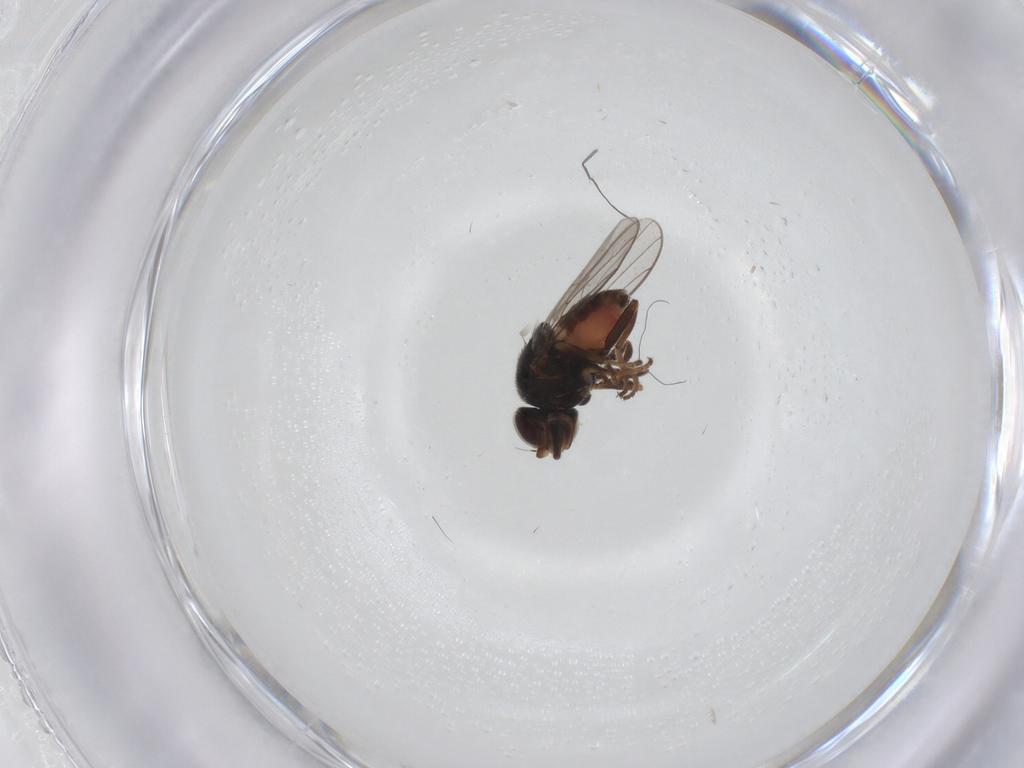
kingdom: Animalia
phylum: Arthropoda
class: Insecta
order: Diptera
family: Chloropidae
